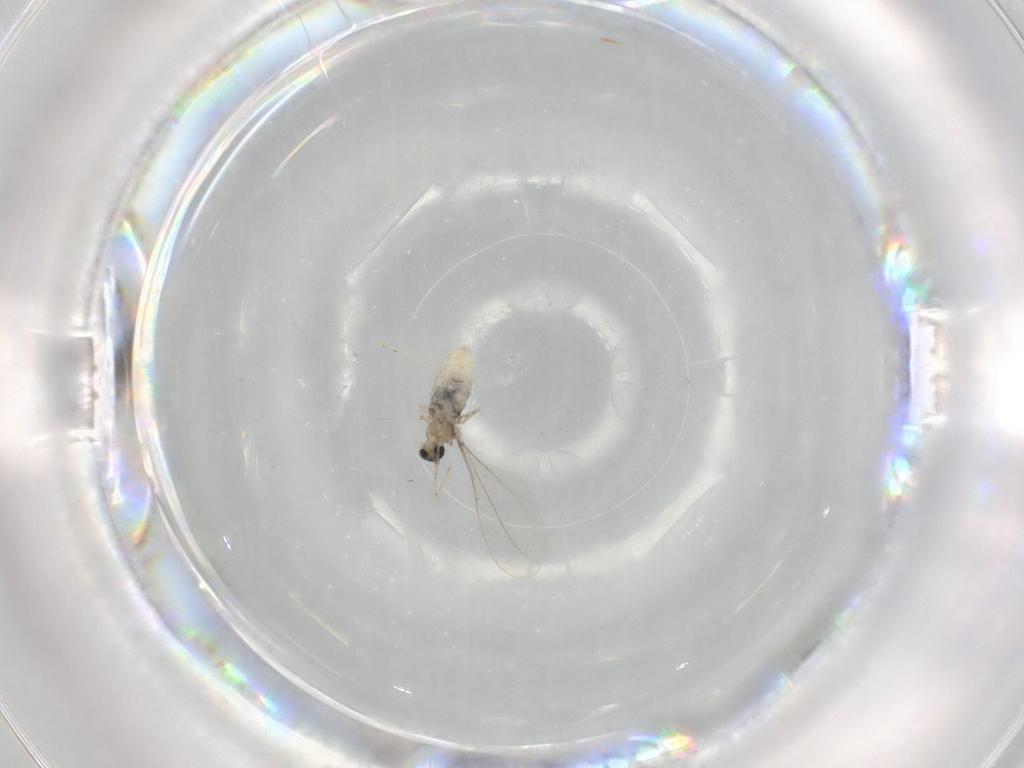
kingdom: Animalia
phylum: Arthropoda
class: Insecta
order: Diptera
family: Cecidomyiidae
